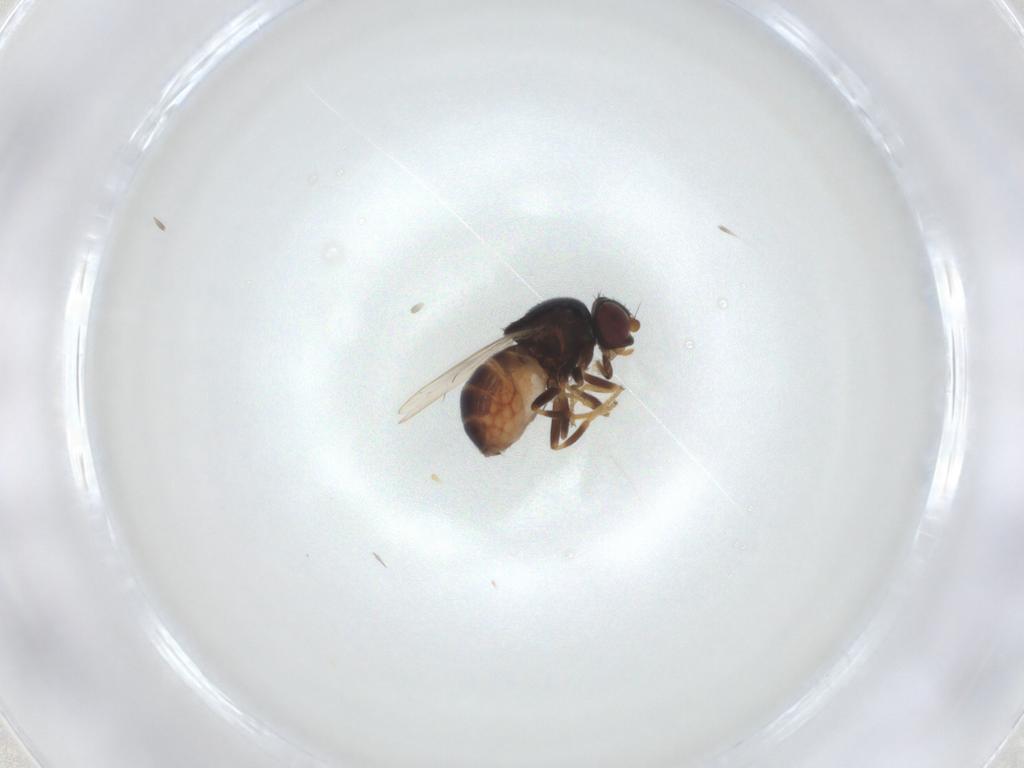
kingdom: Animalia
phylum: Arthropoda
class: Insecta
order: Diptera
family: Chloropidae
